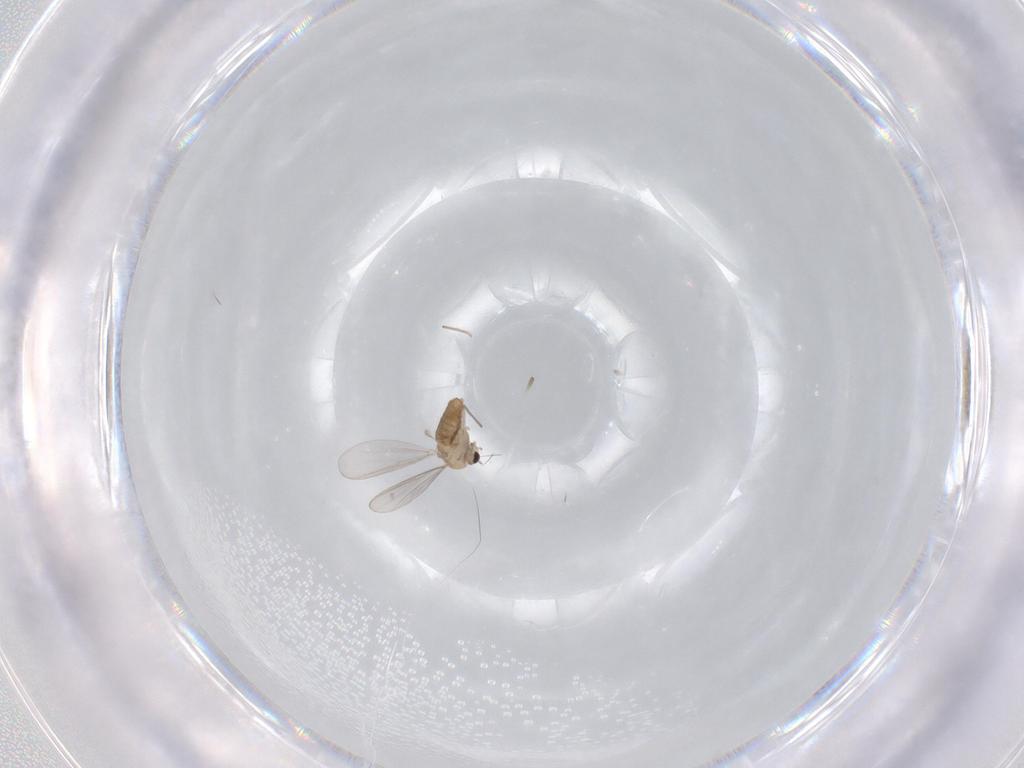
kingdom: Animalia
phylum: Arthropoda
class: Insecta
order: Diptera
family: Chironomidae
